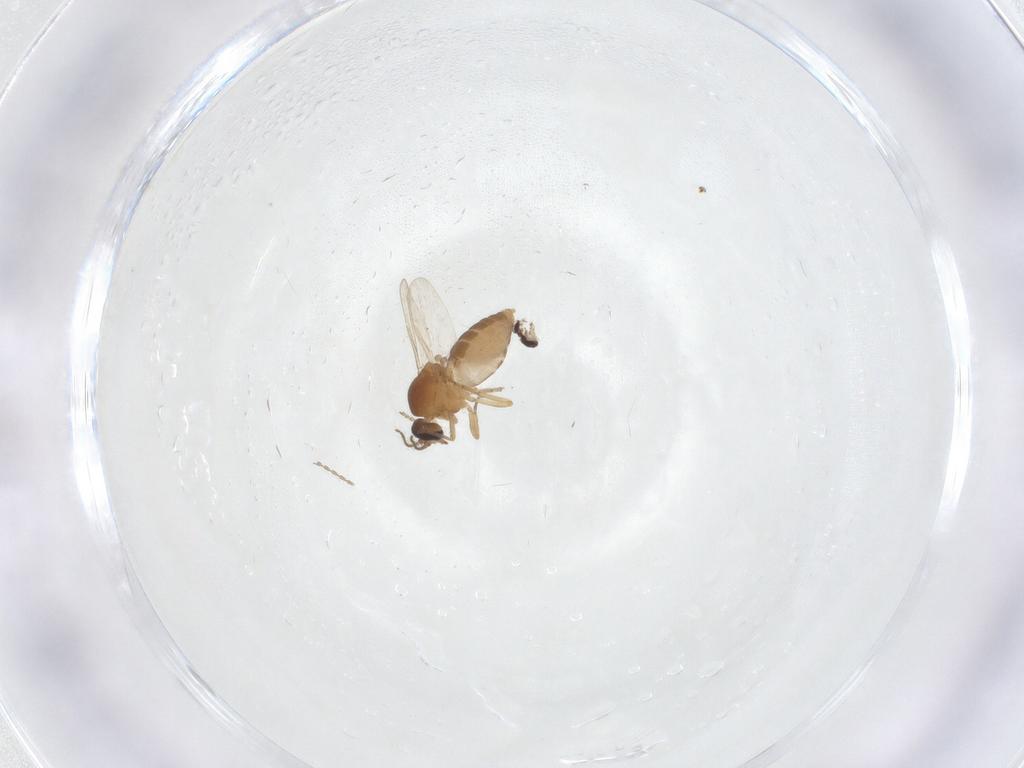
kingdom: Animalia
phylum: Arthropoda
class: Insecta
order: Diptera
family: Ceratopogonidae
